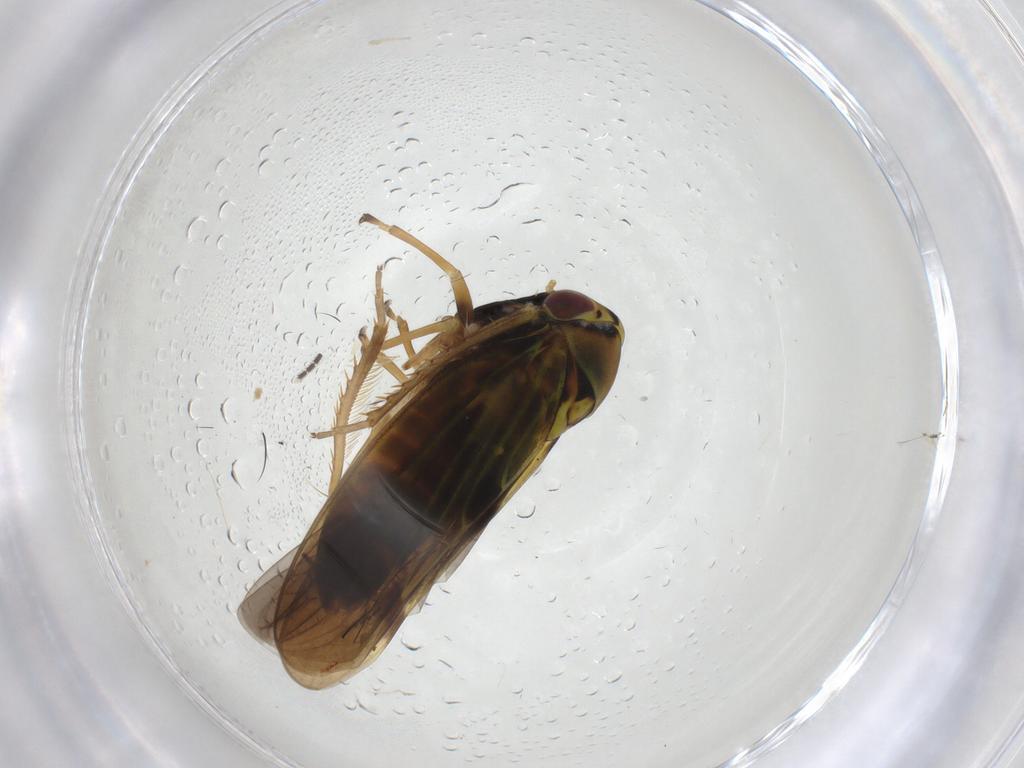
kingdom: Animalia
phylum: Arthropoda
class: Insecta
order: Hemiptera
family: Cicadellidae
